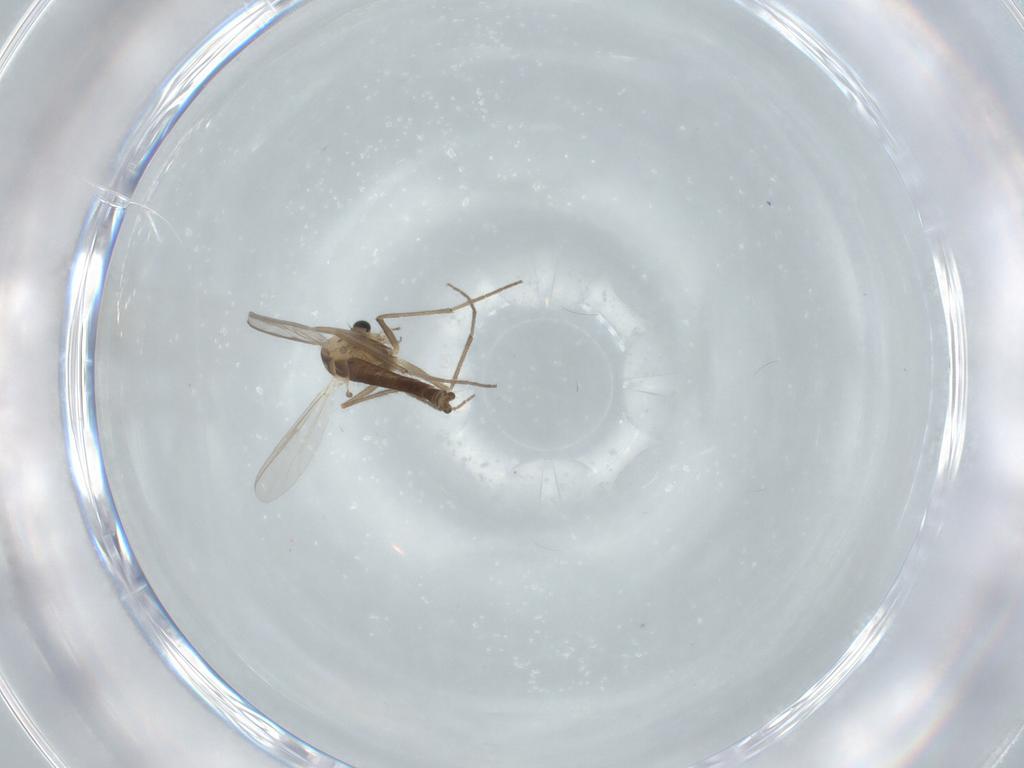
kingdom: Animalia
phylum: Arthropoda
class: Insecta
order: Diptera
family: Chironomidae
